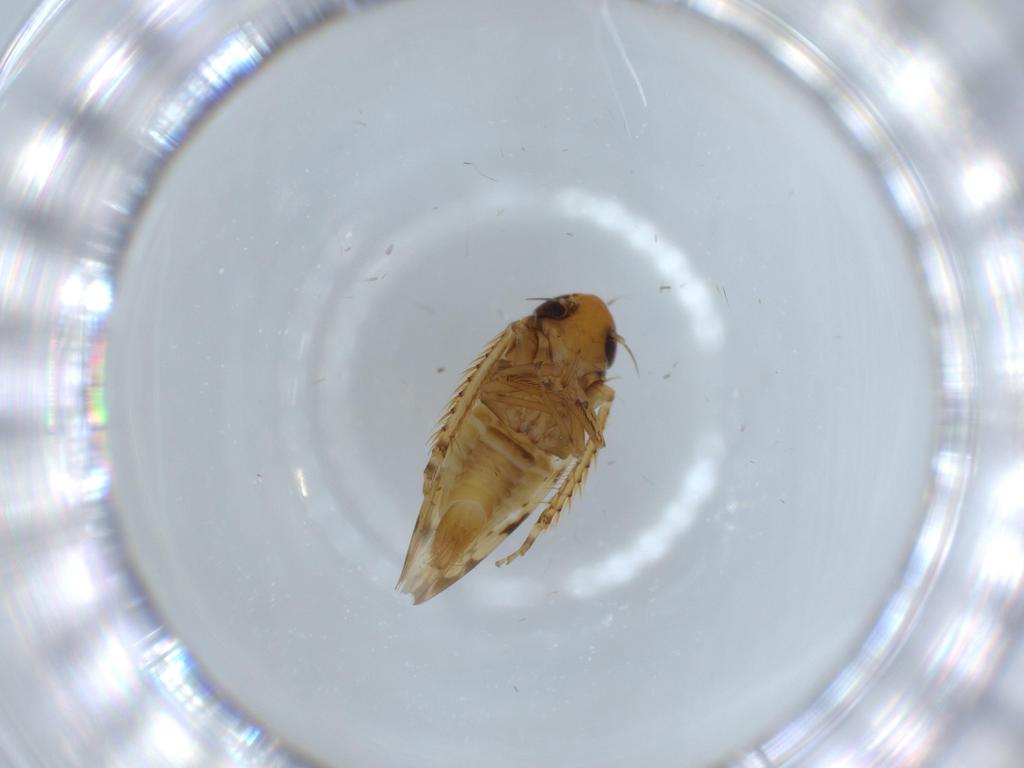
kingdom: Animalia
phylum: Arthropoda
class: Insecta
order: Hemiptera
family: Cicadellidae
